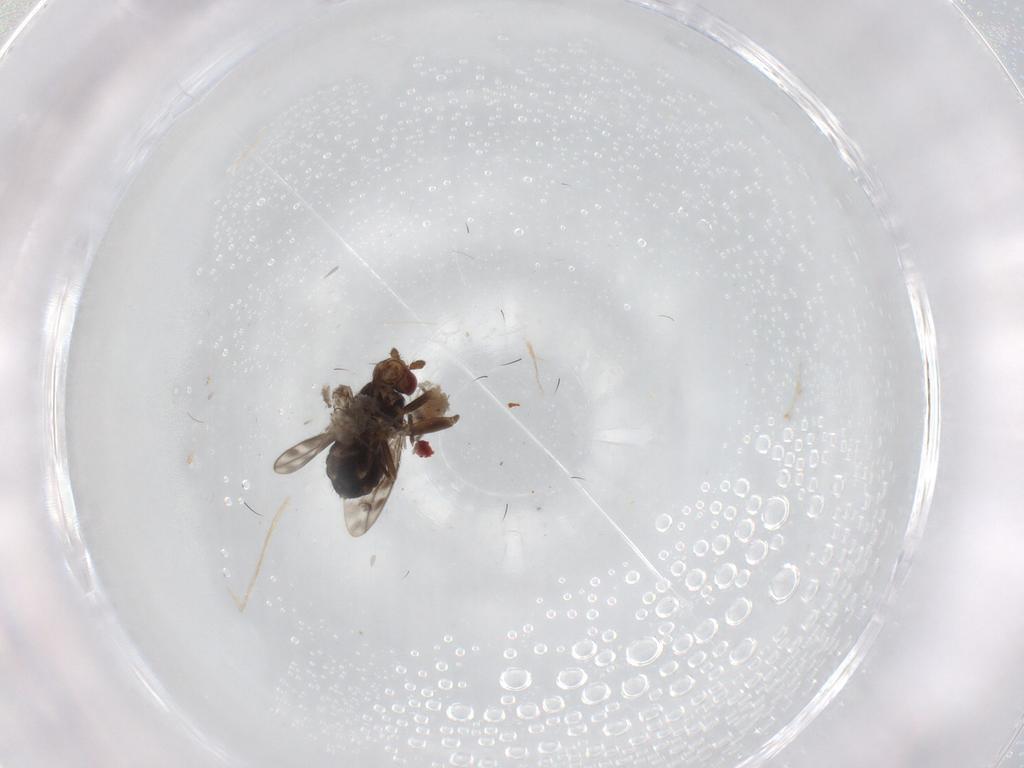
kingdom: Animalia
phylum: Arthropoda
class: Insecta
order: Diptera
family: Sphaeroceridae
